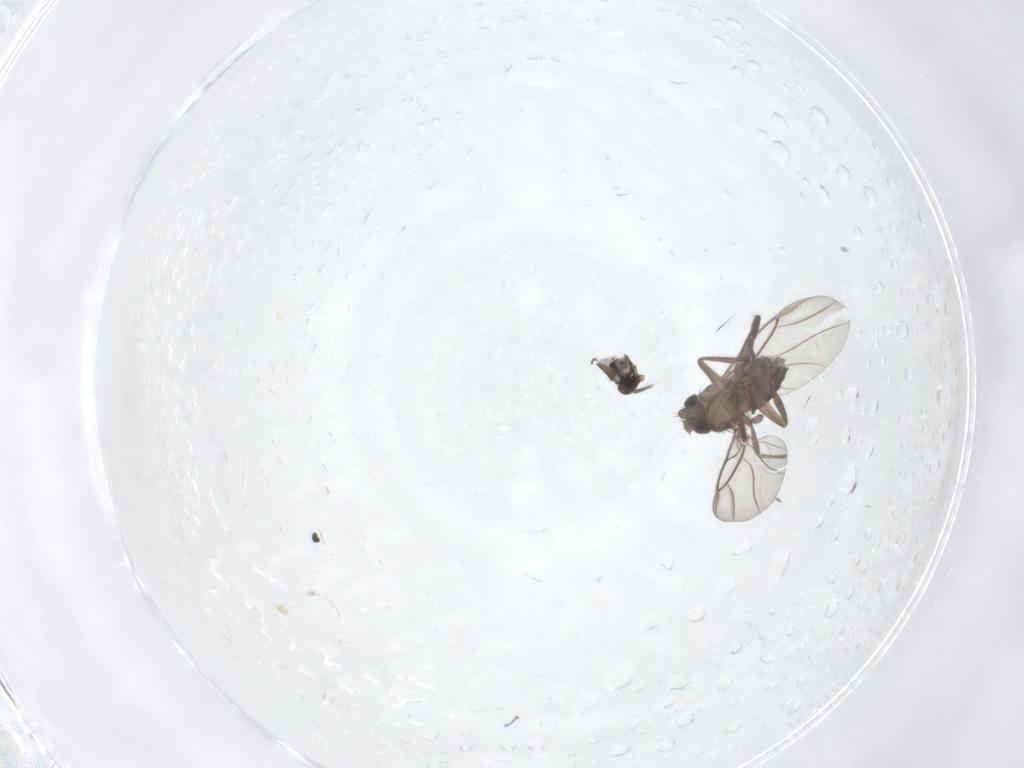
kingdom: Animalia
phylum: Arthropoda
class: Insecta
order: Diptera
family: Phoridae
